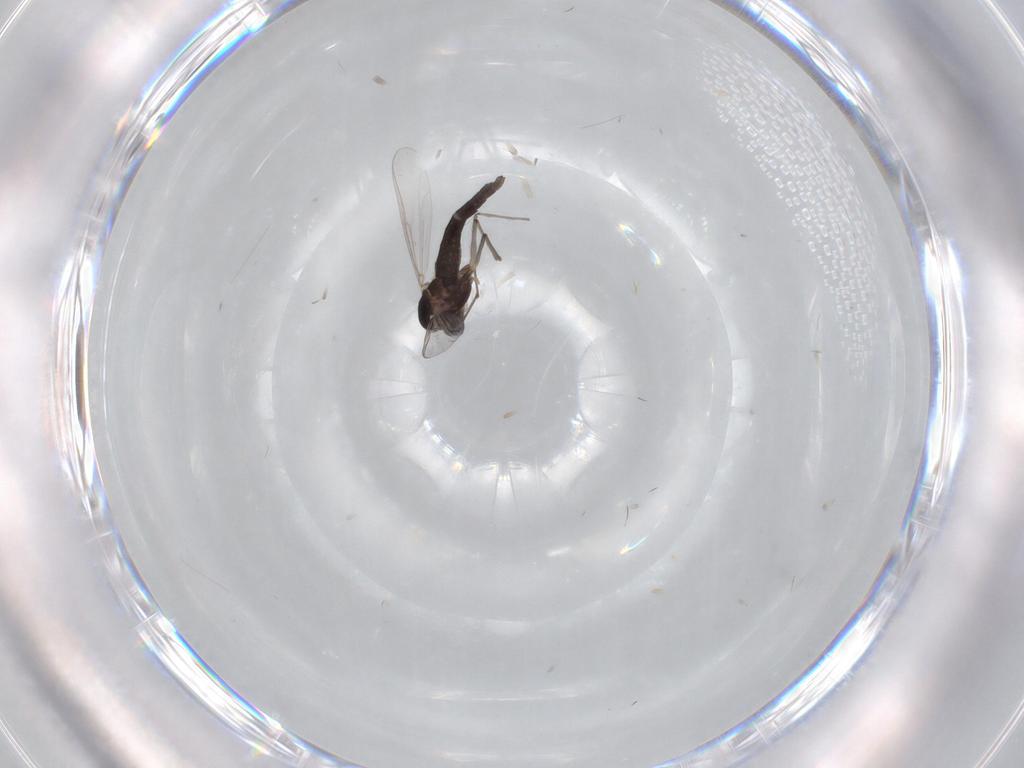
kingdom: Animalia
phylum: Arthropoda
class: Insecta
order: Diptera
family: Chironomidae
